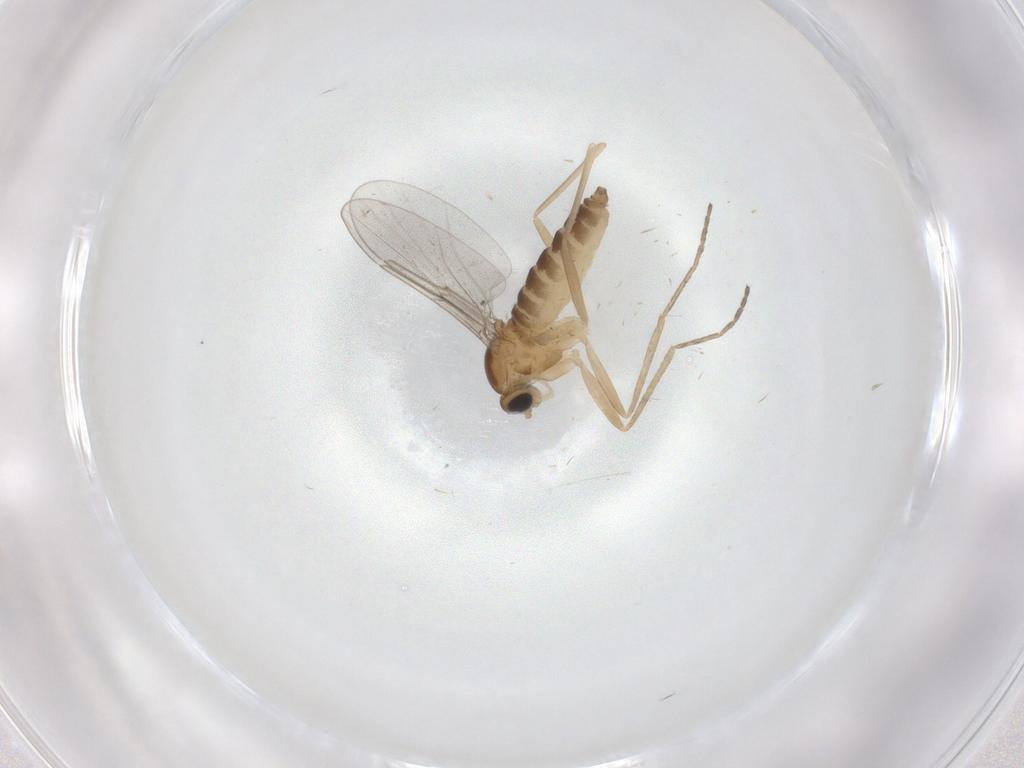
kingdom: Animalia
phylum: Arthropoda
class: Insecta
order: Diptera
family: Cecidomyiidae
